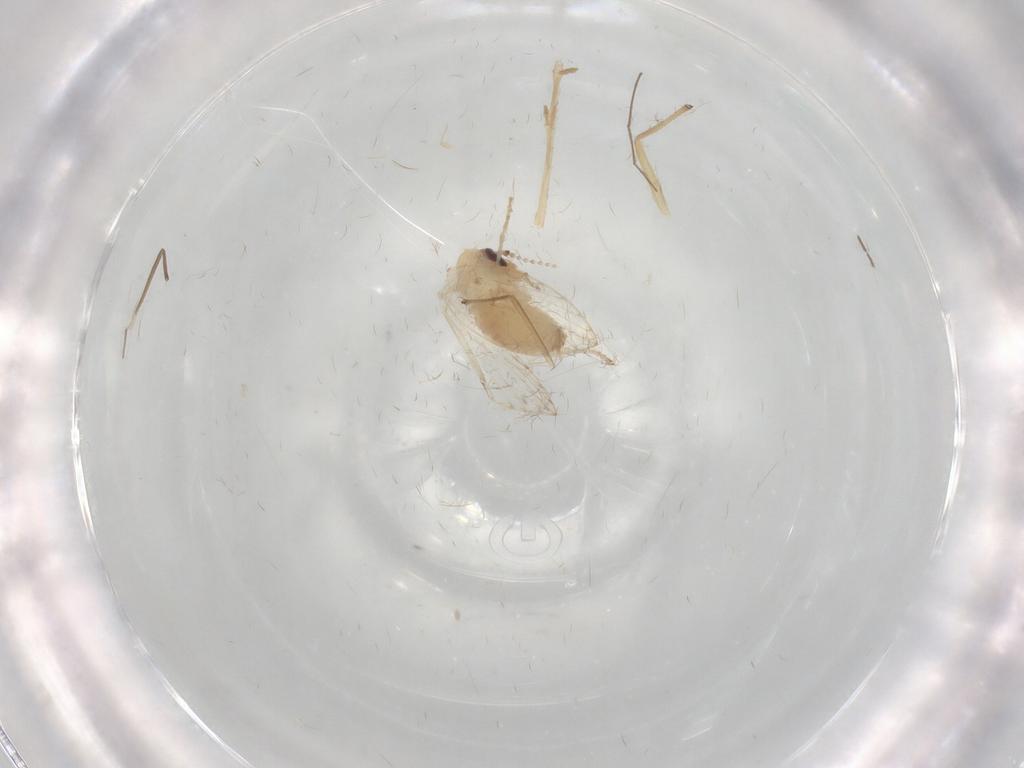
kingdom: Animalia
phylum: Arthropoda
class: Insecta
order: Diptera
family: Psychodidae
